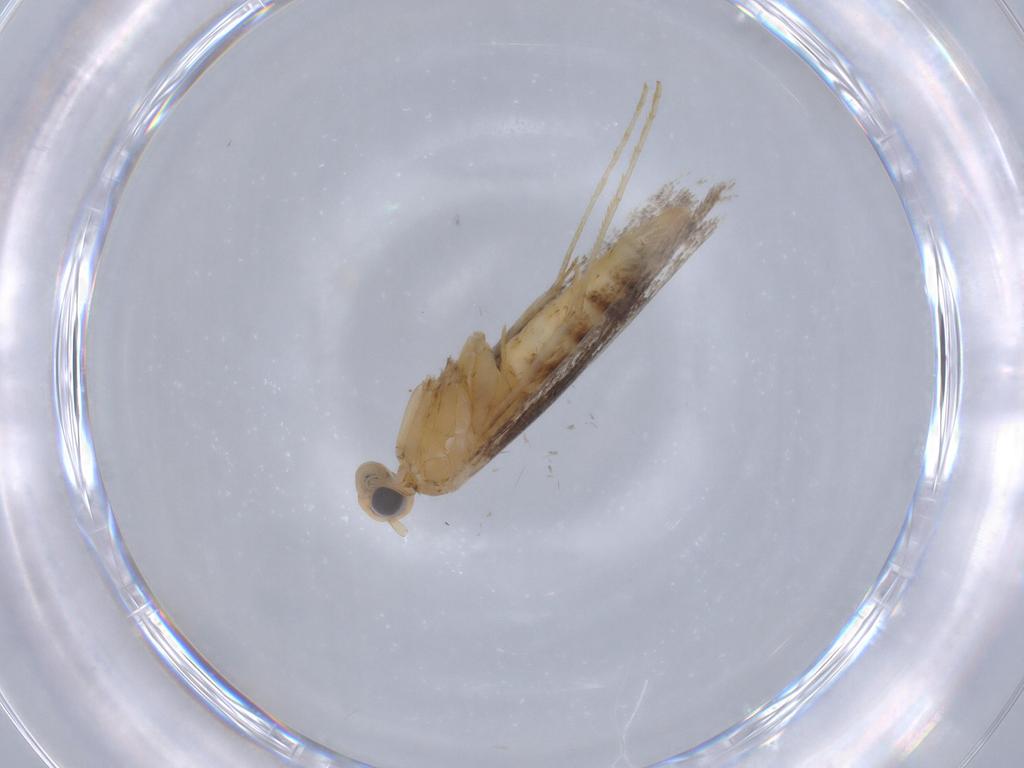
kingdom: Animalia
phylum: Arthropoda
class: Insecta
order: Lepidoptera
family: Gracillariidae
